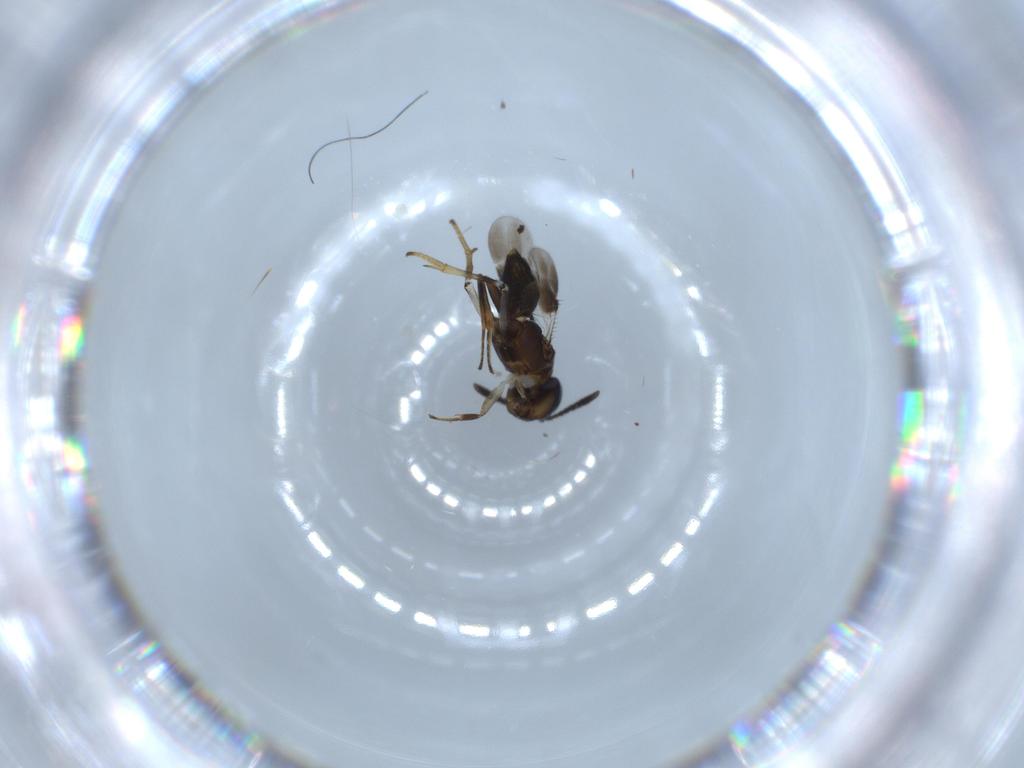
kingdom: Animalia
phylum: Arthropoda
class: Insecta
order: Hymenoptera
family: Encyrtidae
